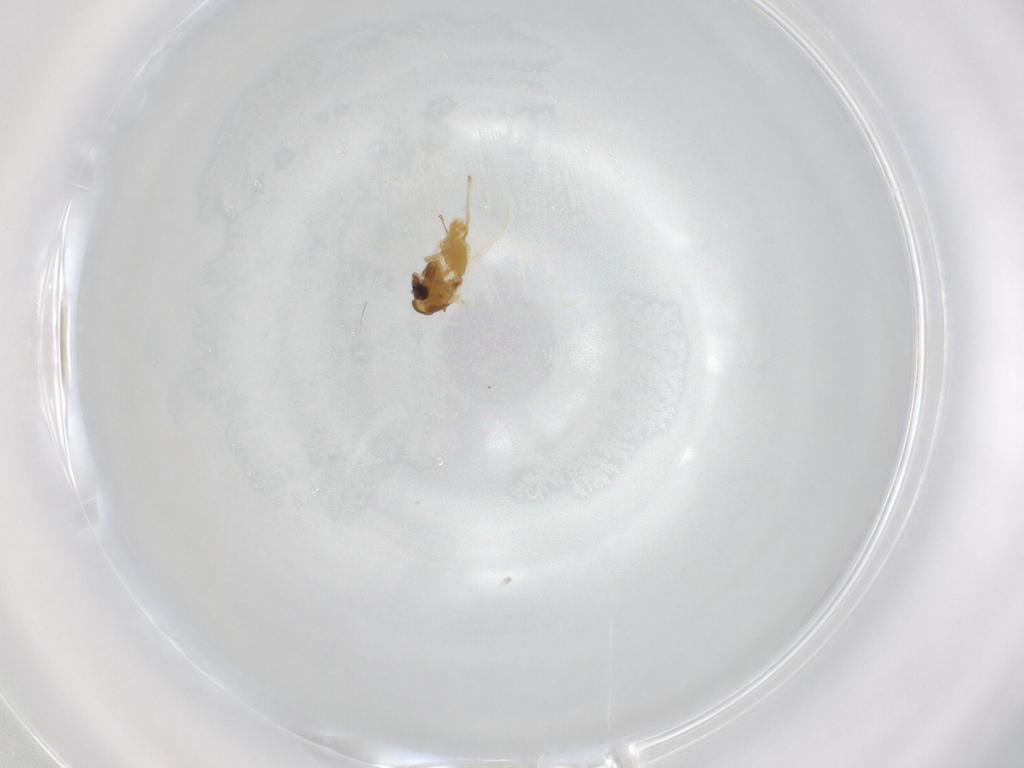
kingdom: Animalia
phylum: Arthropoda
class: Insecta
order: Diptera
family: Chironomidae
